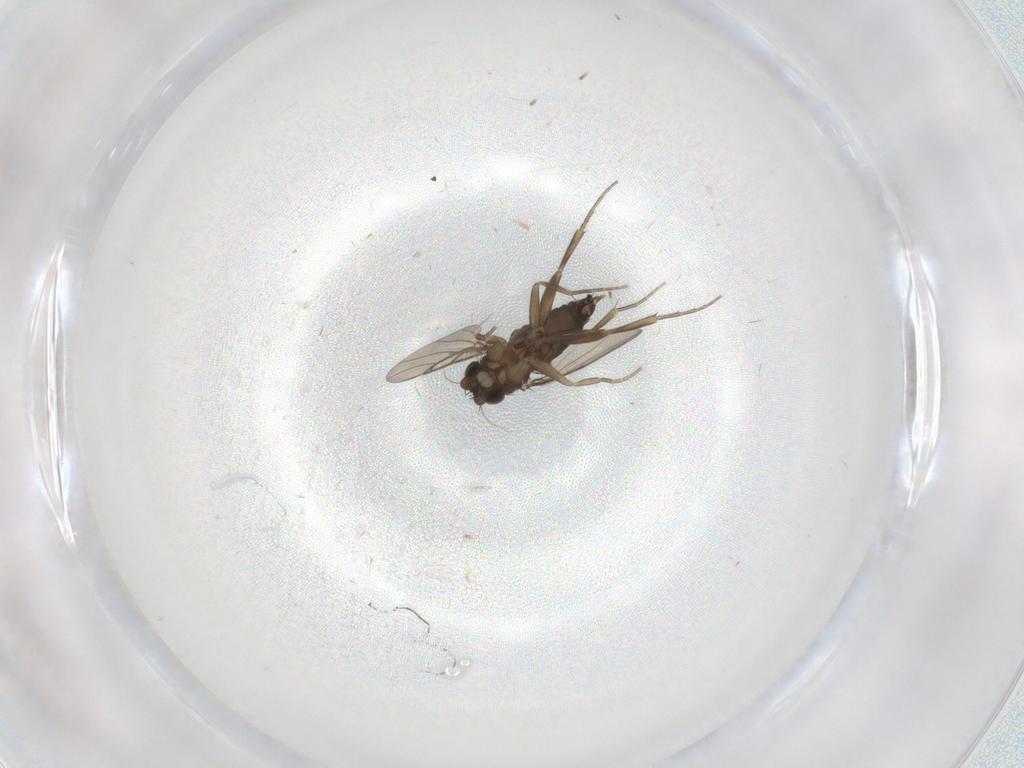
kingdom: Animalia
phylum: Arthropoda
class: Insecta
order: Diptera
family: Phoridae
